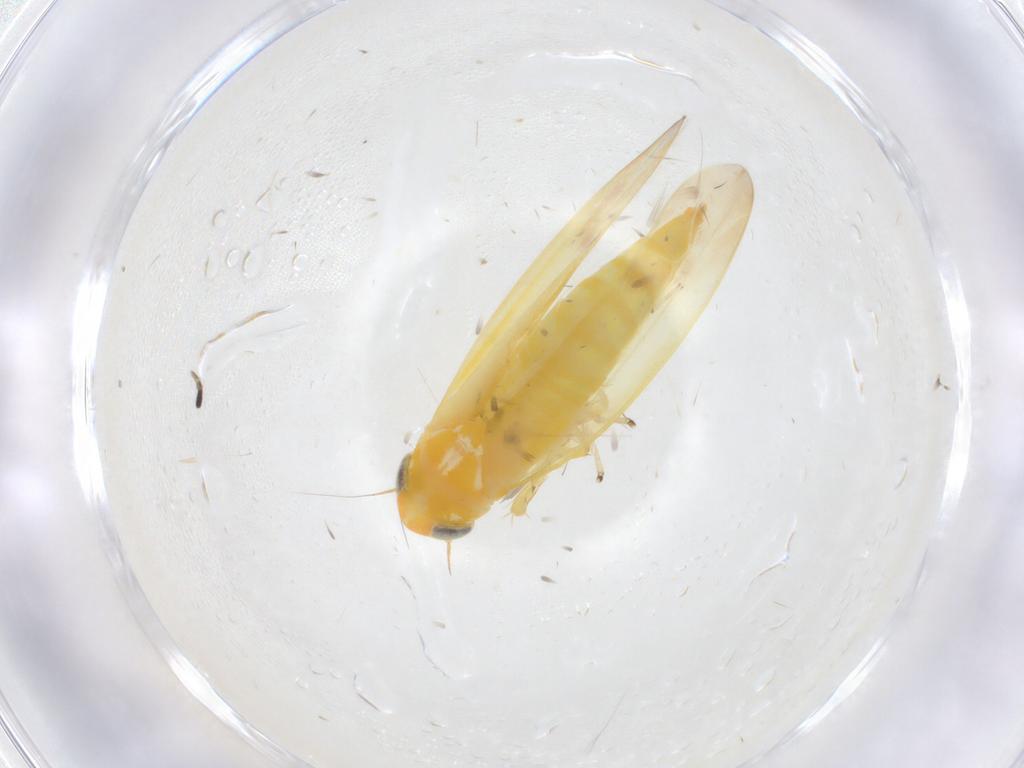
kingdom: Animalia
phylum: Arthropoda
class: Insecta
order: Hemiptera
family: Cicadellidae
